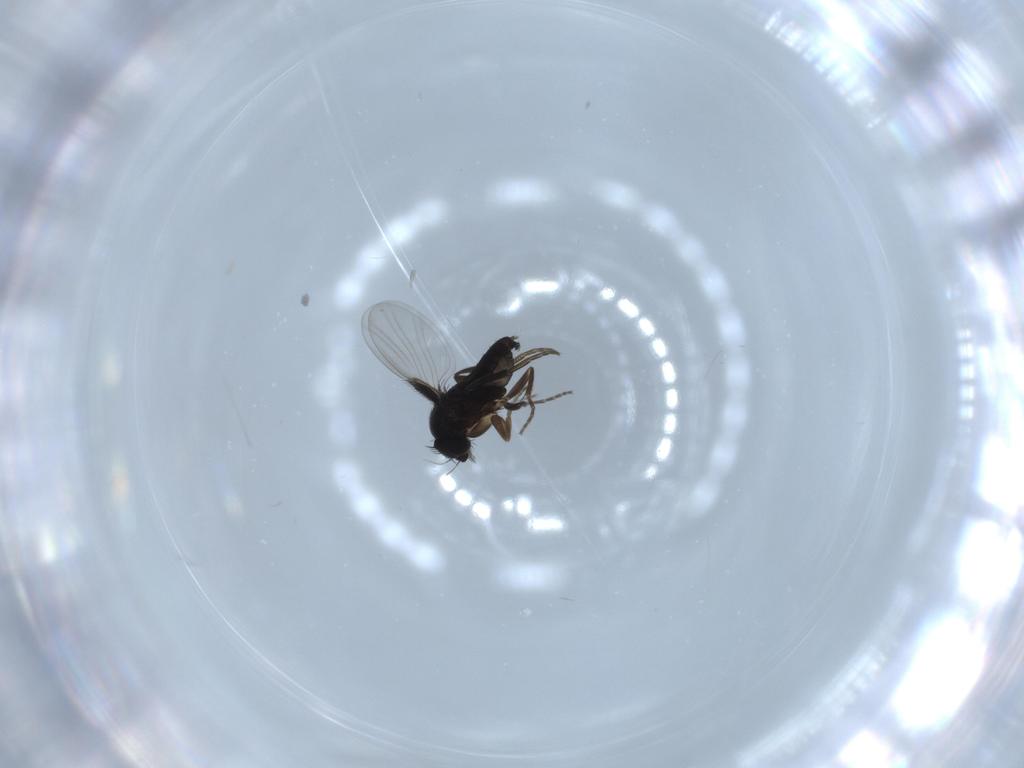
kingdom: Animalia
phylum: Arthropoda
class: Insecta
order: Diptera
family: Phoridae
